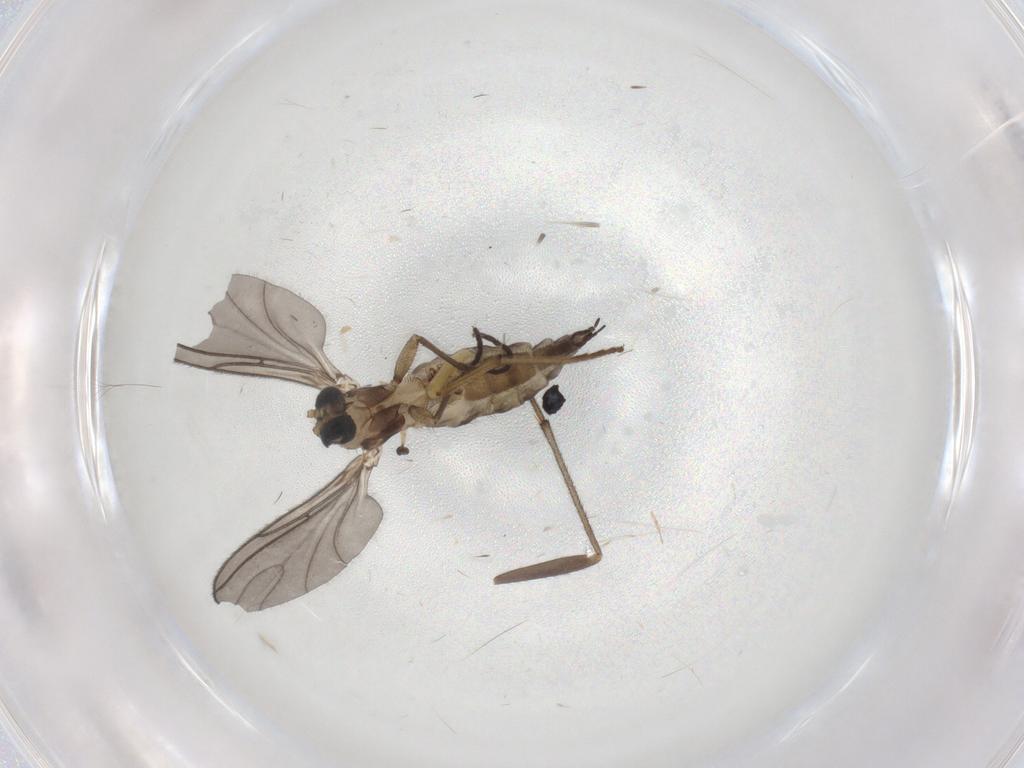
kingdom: Animalia
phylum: Arthropoda
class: Insecta
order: Diptera
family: Sciaridae
